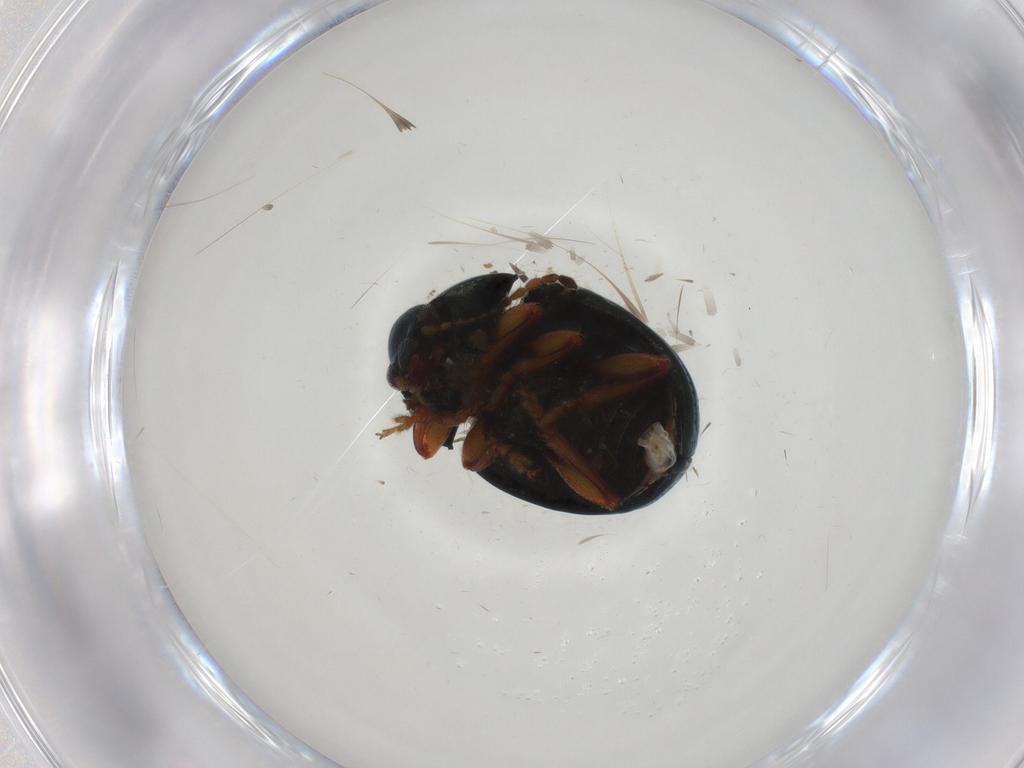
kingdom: Animalia
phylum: Arthropoda
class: Insecta
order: Coleoptera
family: Chrysomelidae
